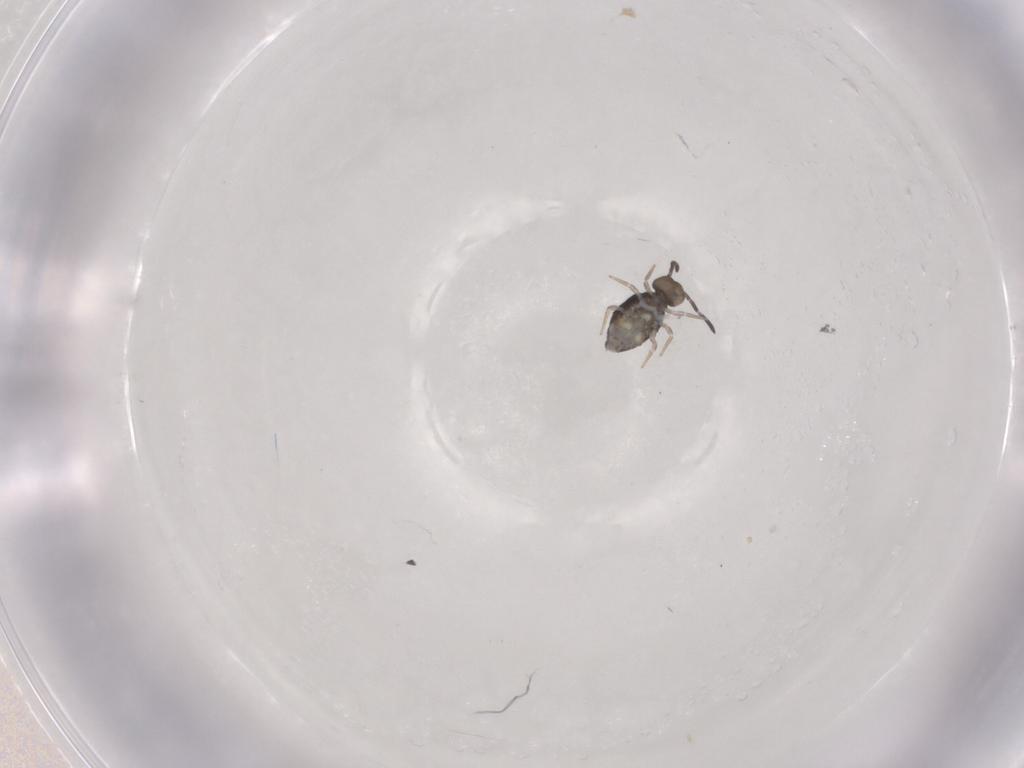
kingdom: Animalia
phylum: Arthropoda
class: Collembola
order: Symphypleona
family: Katiannidae
